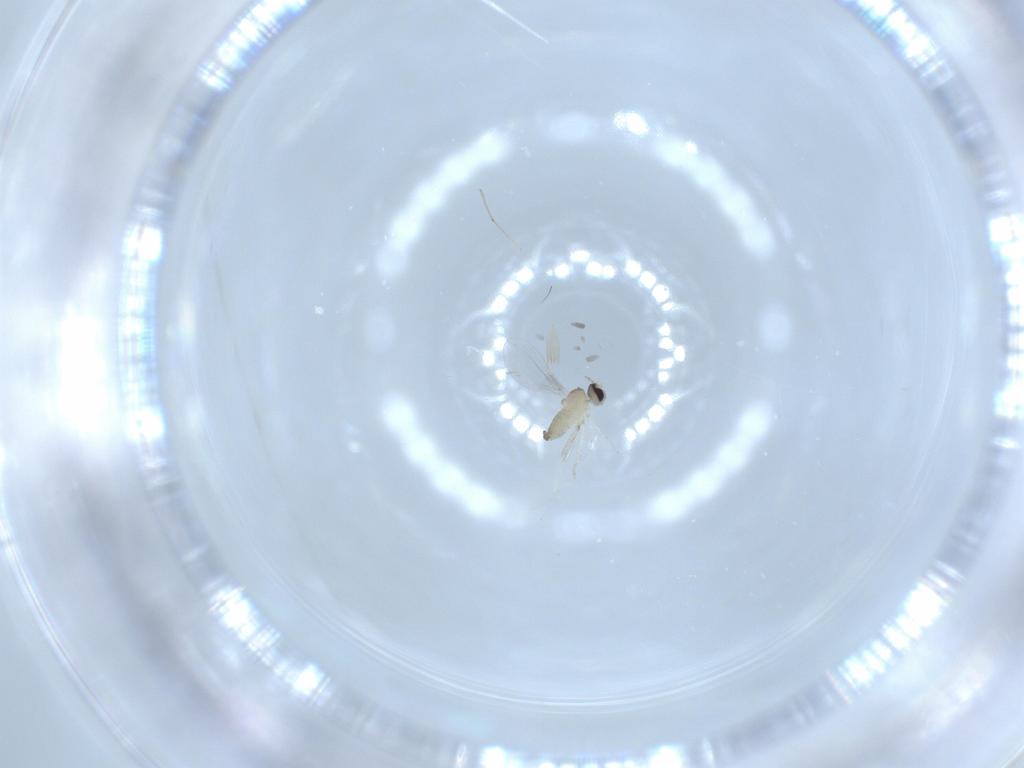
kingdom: Animalia
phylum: Arthropoda
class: Insecta
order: Diptera
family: Cecidomyiidae
